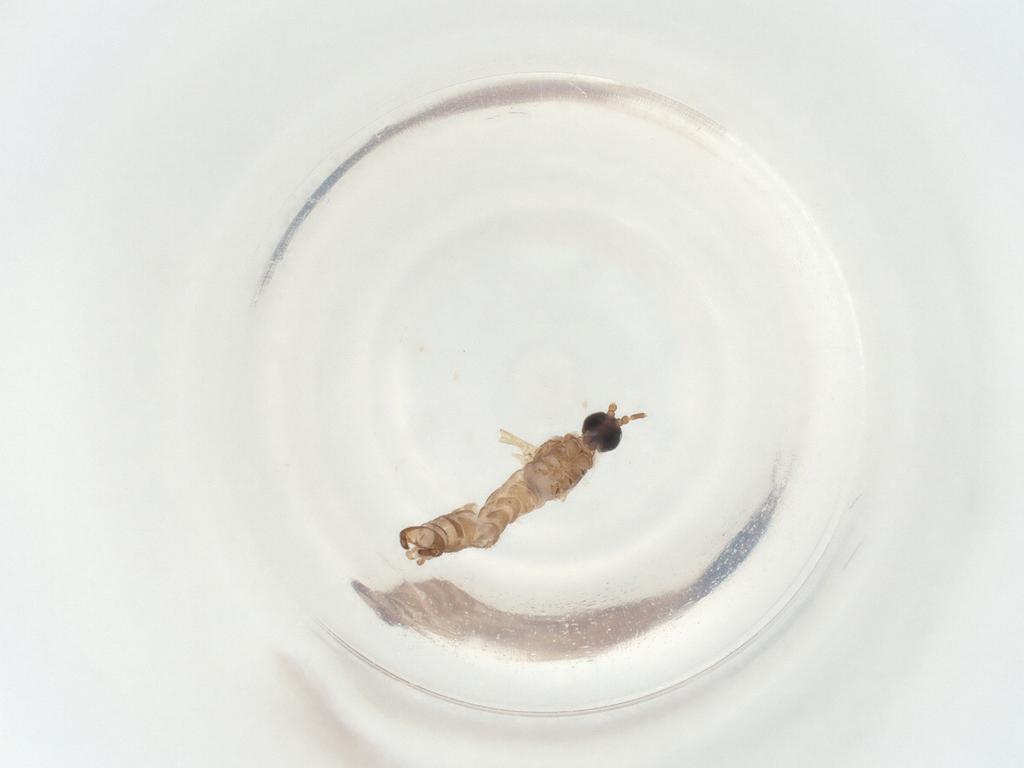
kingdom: Animalia
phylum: Arthropoda
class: Insecta
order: Diptera
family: Sciaridae
